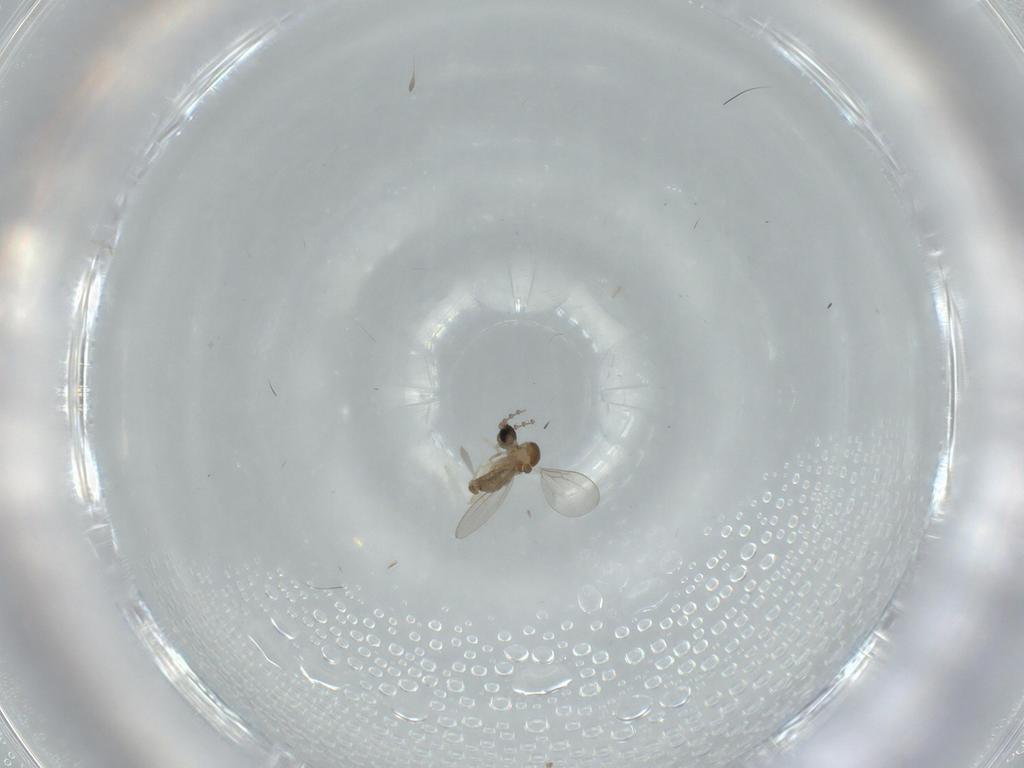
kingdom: Animalia
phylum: Arthropoda
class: Insecta
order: Diptera
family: Cecidomyiidae
